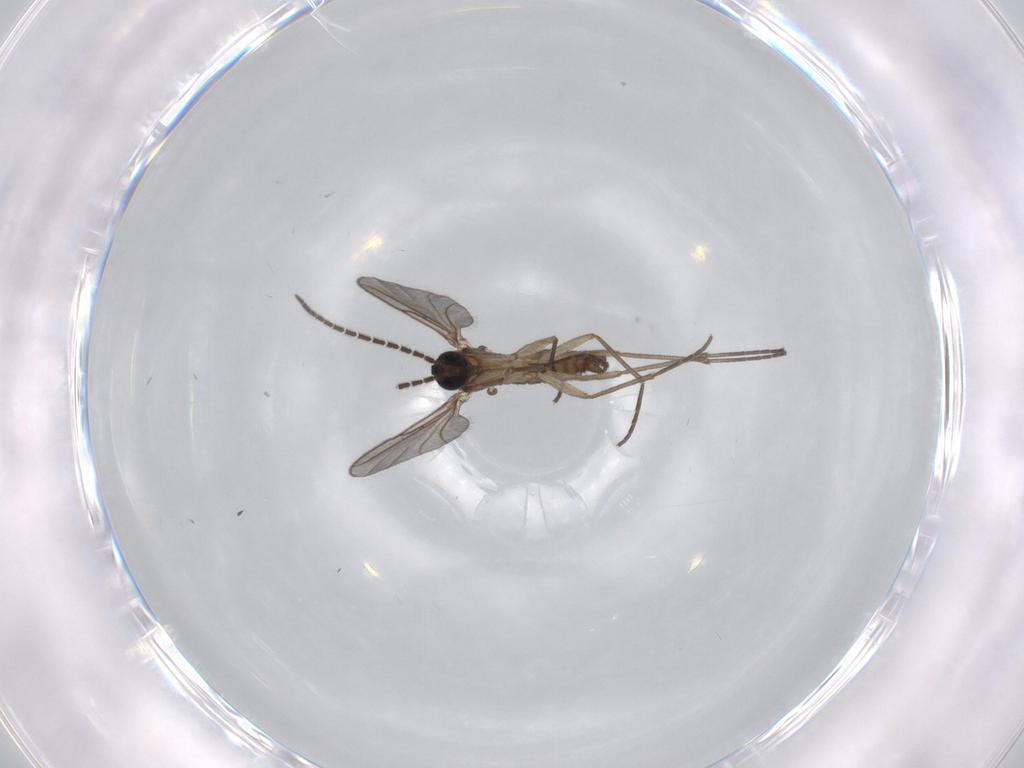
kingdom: Animalia
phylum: Arthropoda
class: Insecta
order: Diptera
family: Sciaridae
